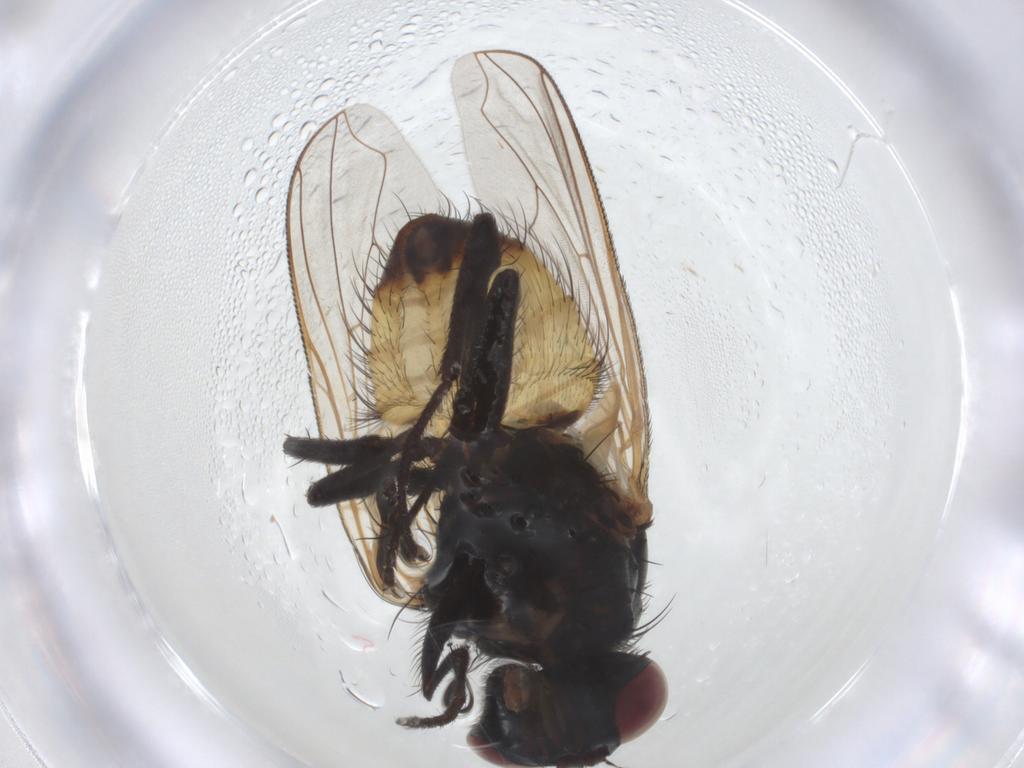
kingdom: Animalia
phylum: Arthropoda
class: Insecta
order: Diptera
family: Muscidae
